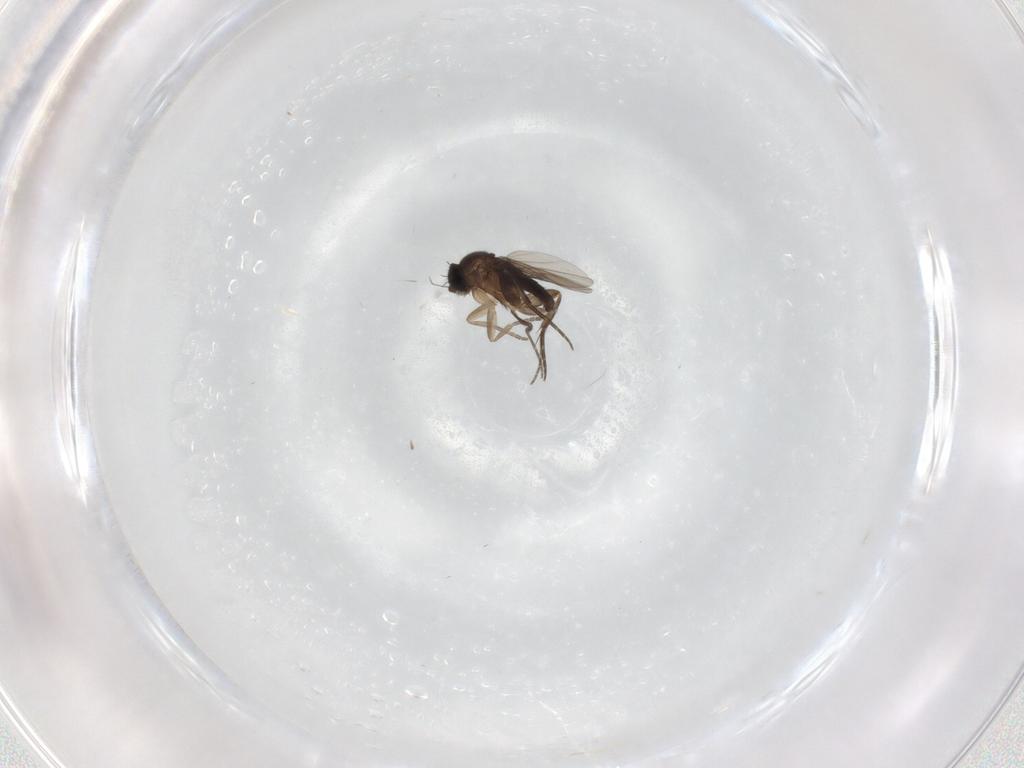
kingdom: Animalia
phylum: Arthropoda
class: Insecta
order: Diptera
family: Phoridae
